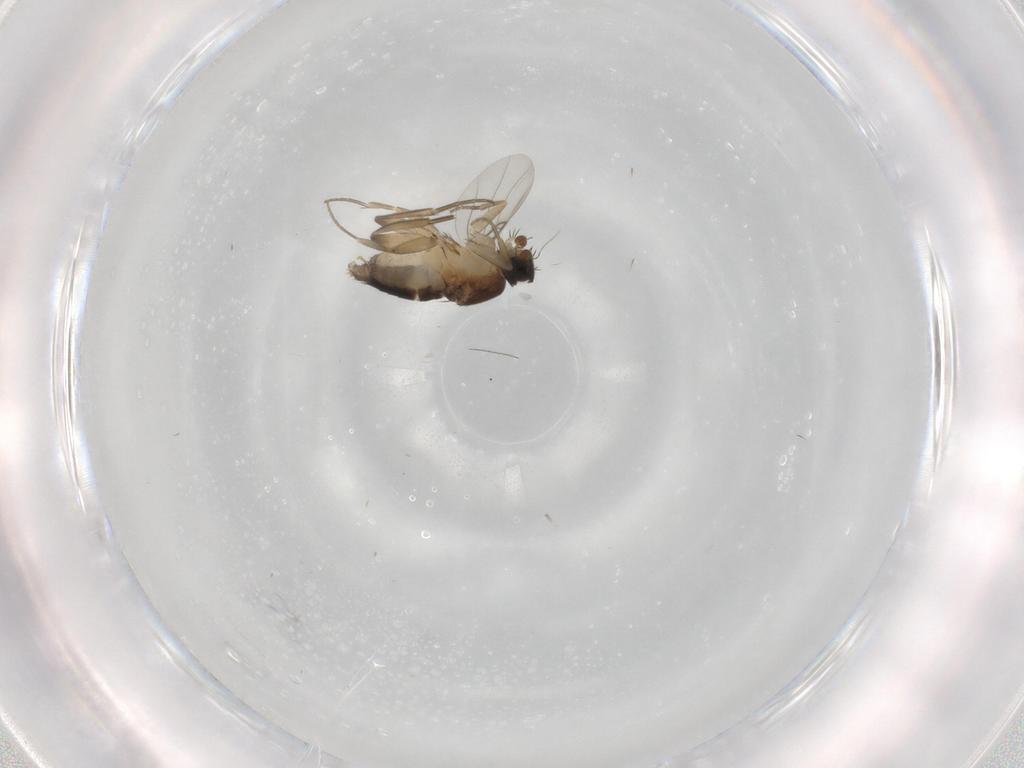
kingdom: Animalia
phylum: Arthropoda
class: Insecta
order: Diptera
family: Phoridae
